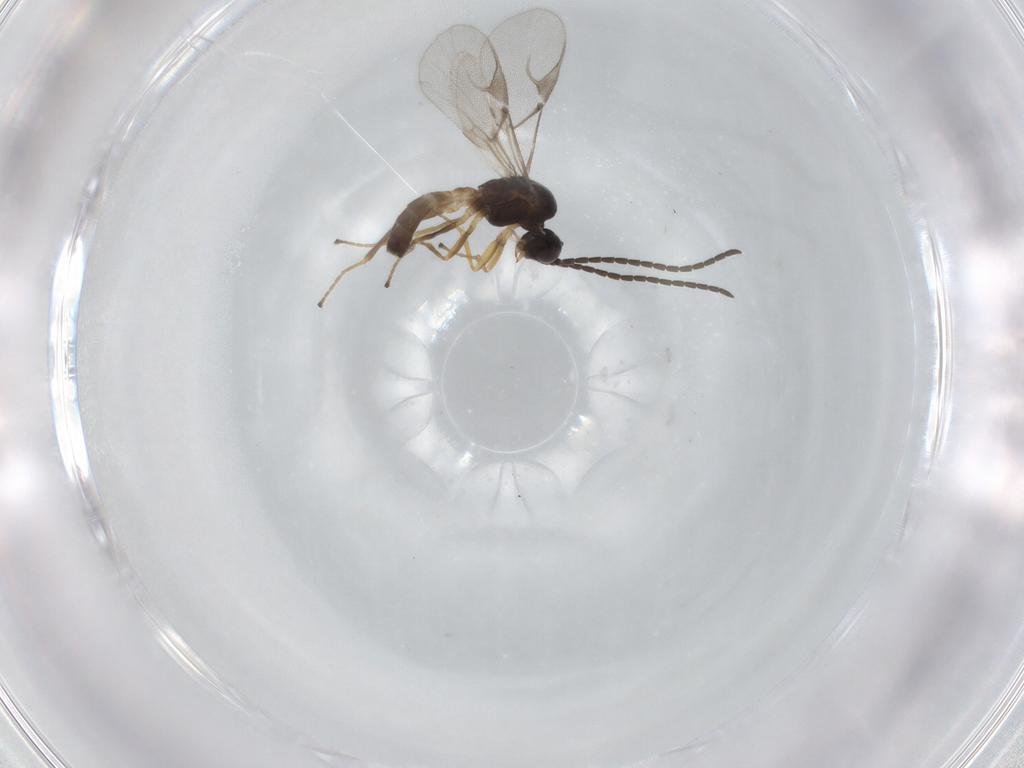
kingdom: Animalia
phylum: Arthropoda
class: Insecta
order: Hymenoptera
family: Braconidae
